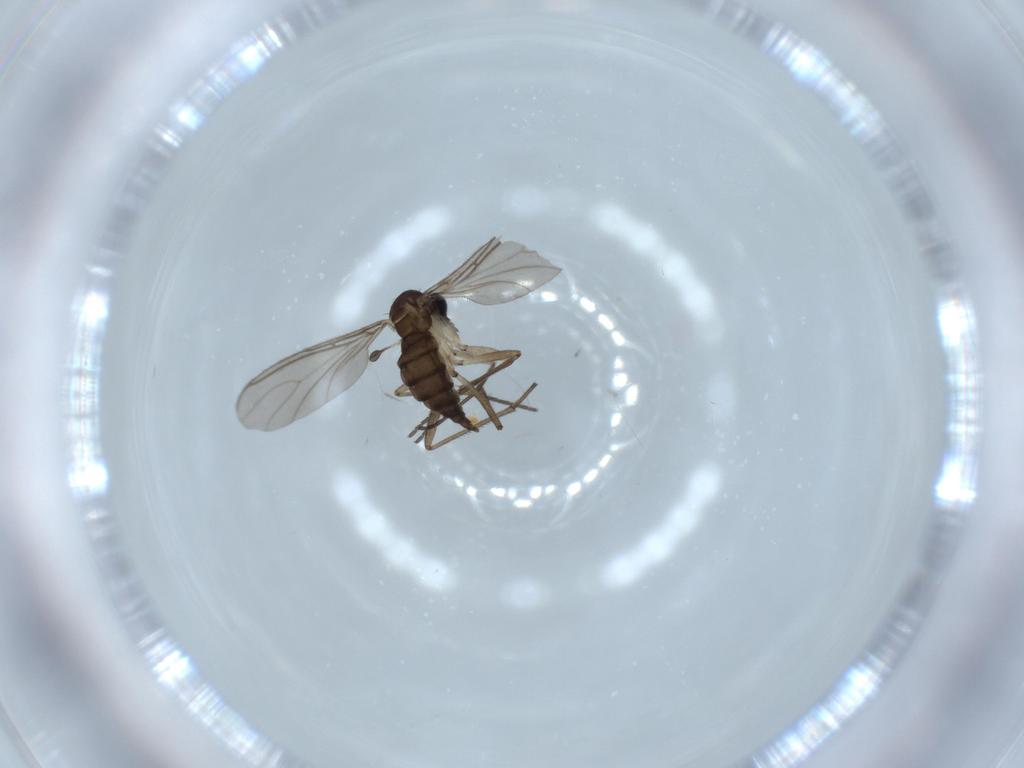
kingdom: Animalia
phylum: Arthropoda
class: Insecta
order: Diptera
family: Sciaridae
